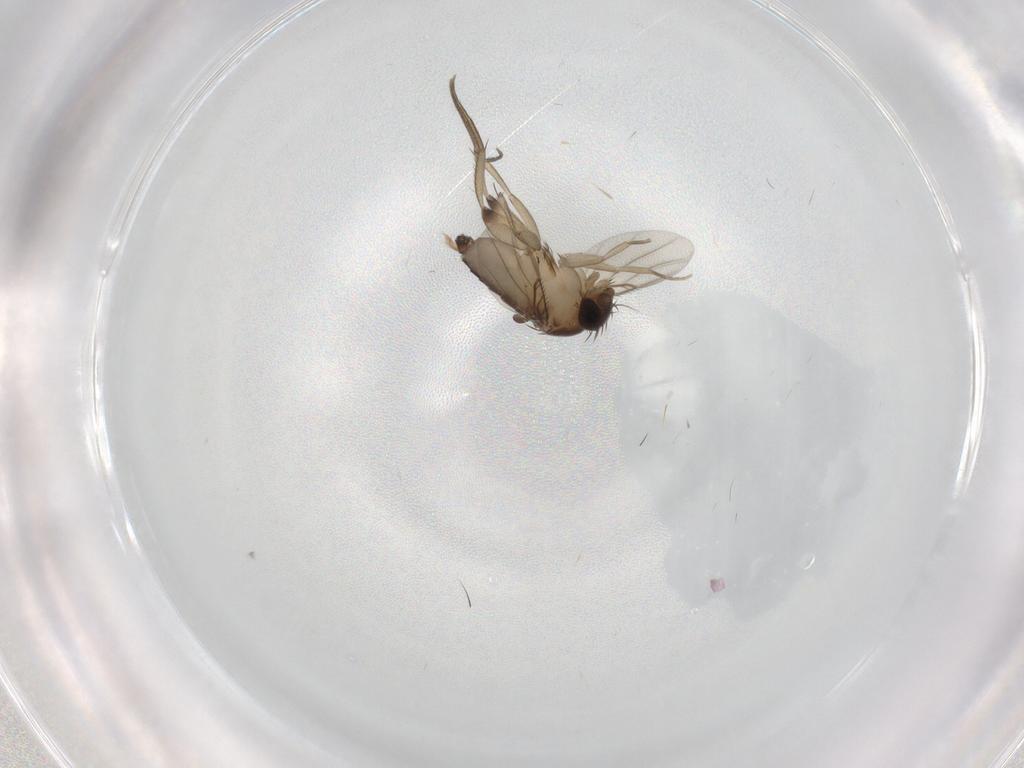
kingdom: Animalia
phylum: Arthropoda
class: Insecta
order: Diptera
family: Phoridae
